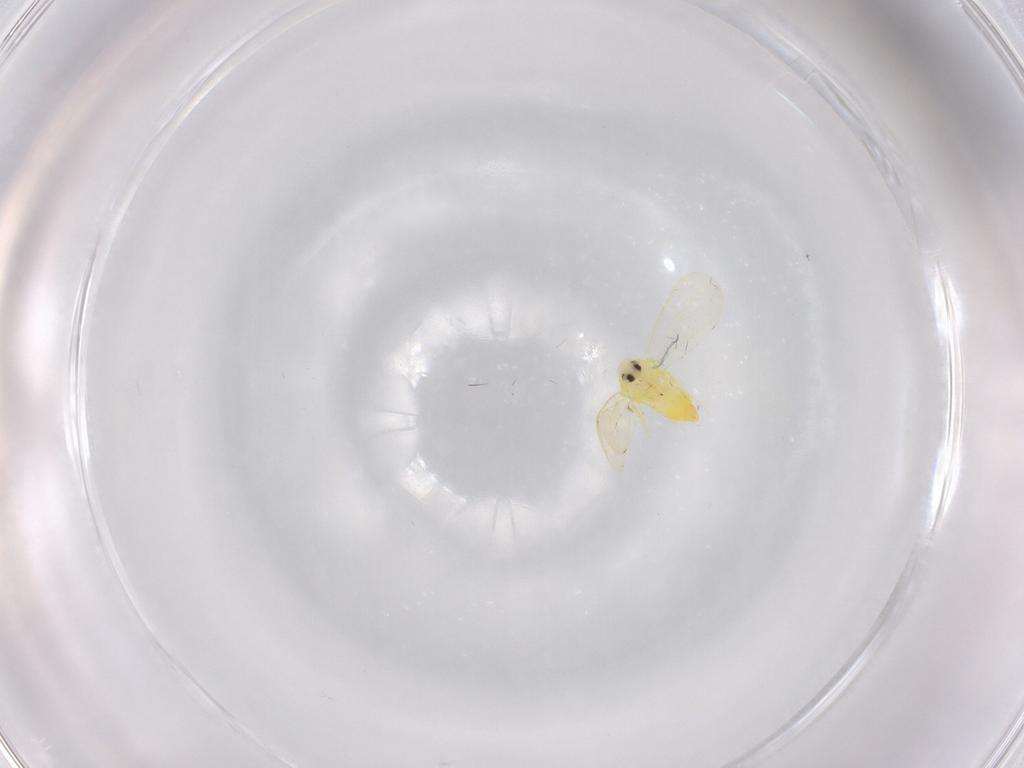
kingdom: Animalia
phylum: Arthropoda
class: Insecta
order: Hemiptera
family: Aleyrodidae
